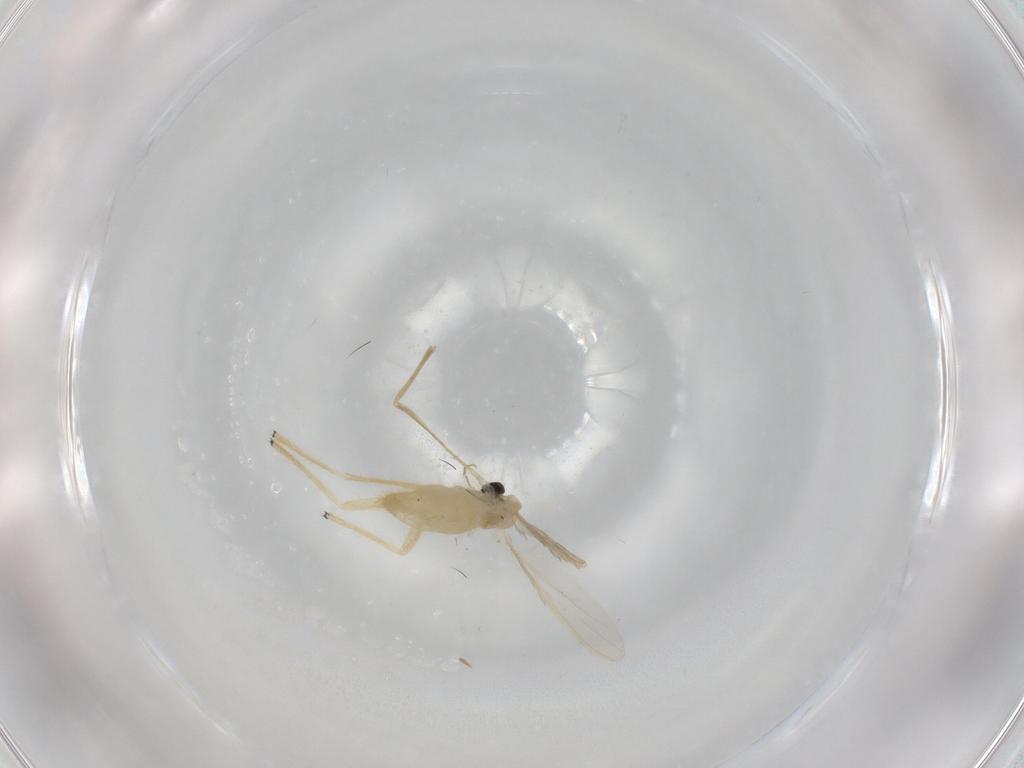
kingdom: Animalia
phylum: Arthropoda
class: Insecta
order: Diptera
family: Chironomidae
